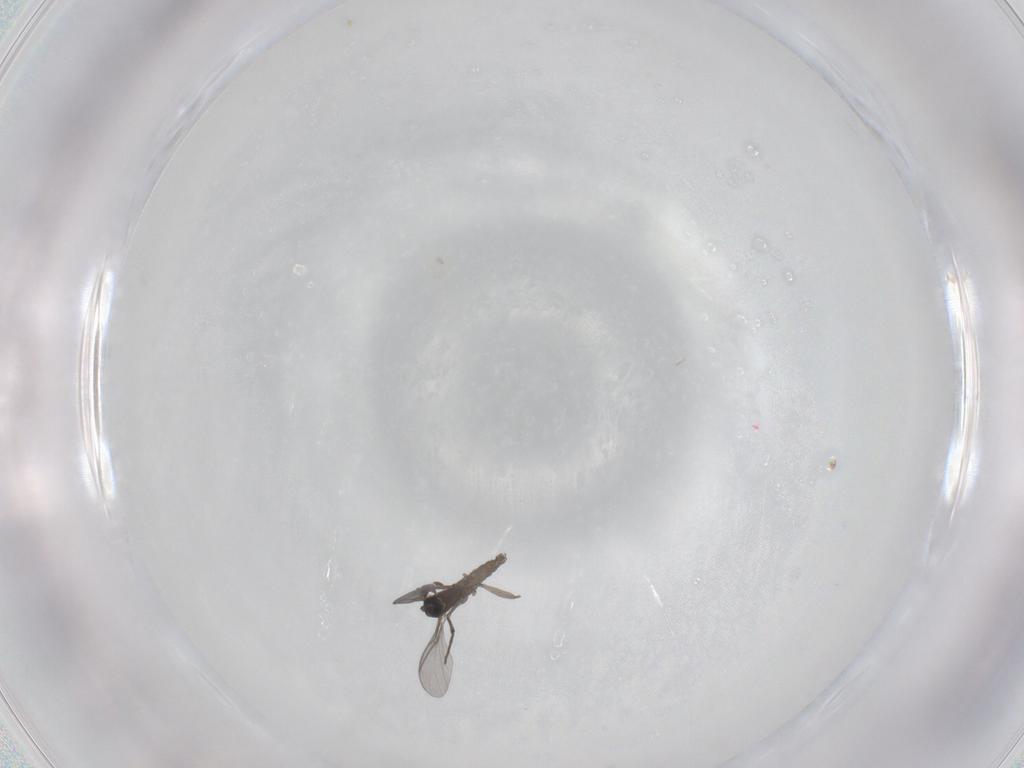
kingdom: Animalia
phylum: Arthropoda
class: Insecta
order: Diptera
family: Sciaridae
